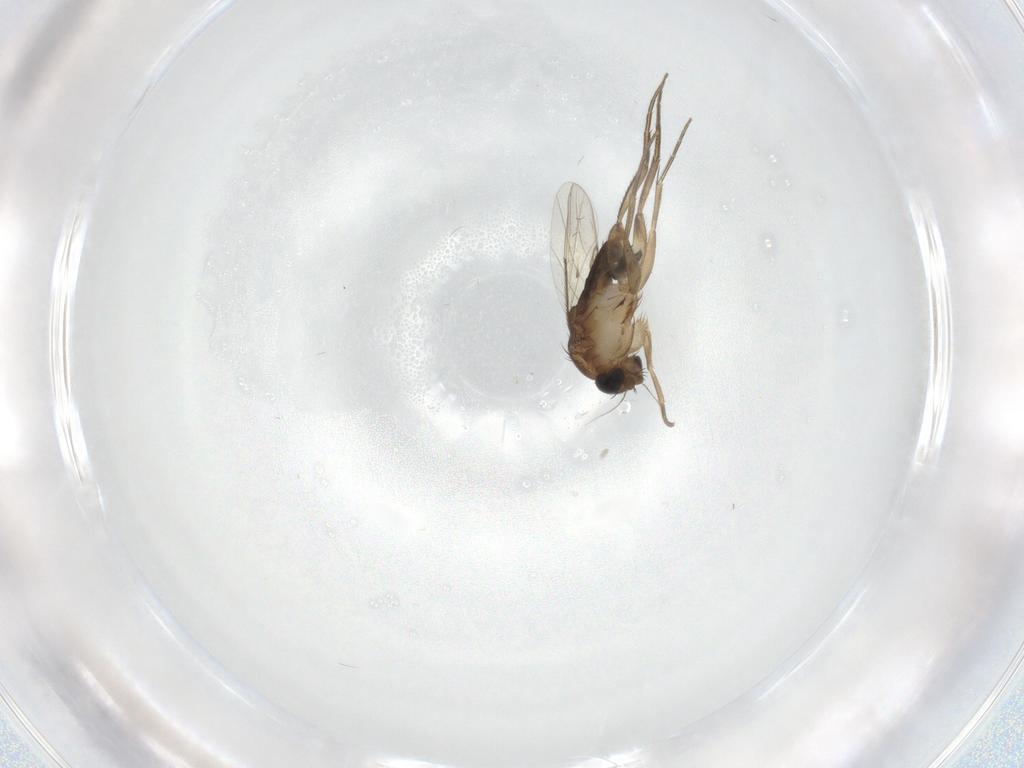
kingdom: Animalia
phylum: Arthropoda
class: Insecta
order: Diptera
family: Phoridae
